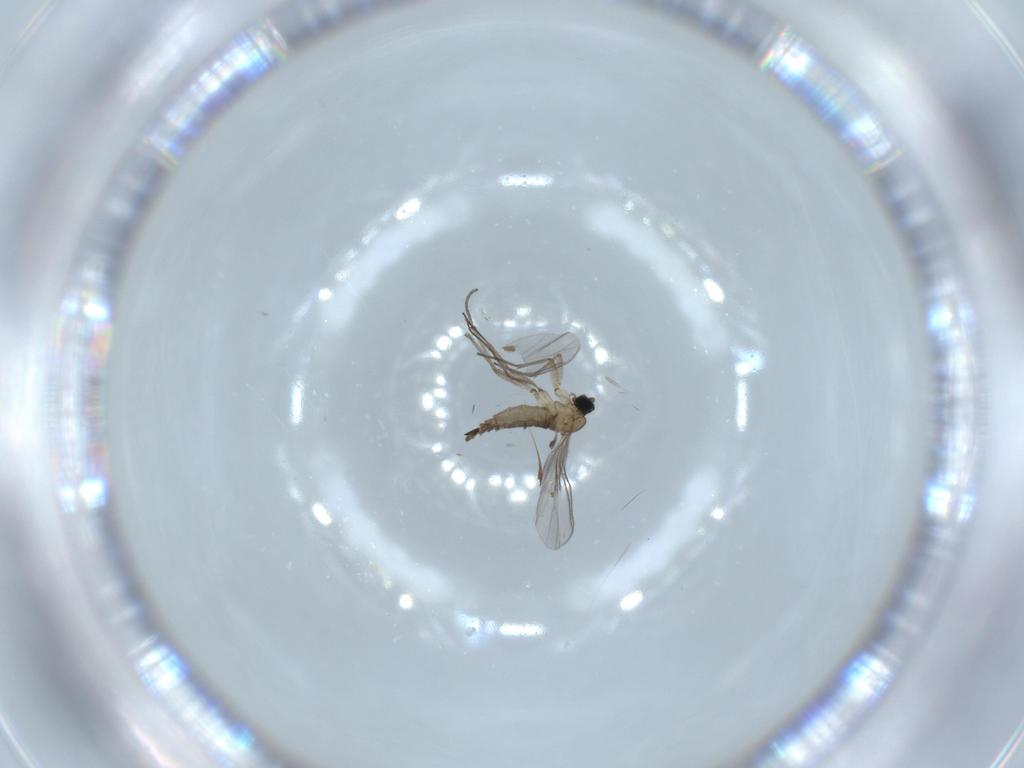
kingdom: Animalia
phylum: Arthropoda
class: Insecta
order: Diptera
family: Sciaridae
